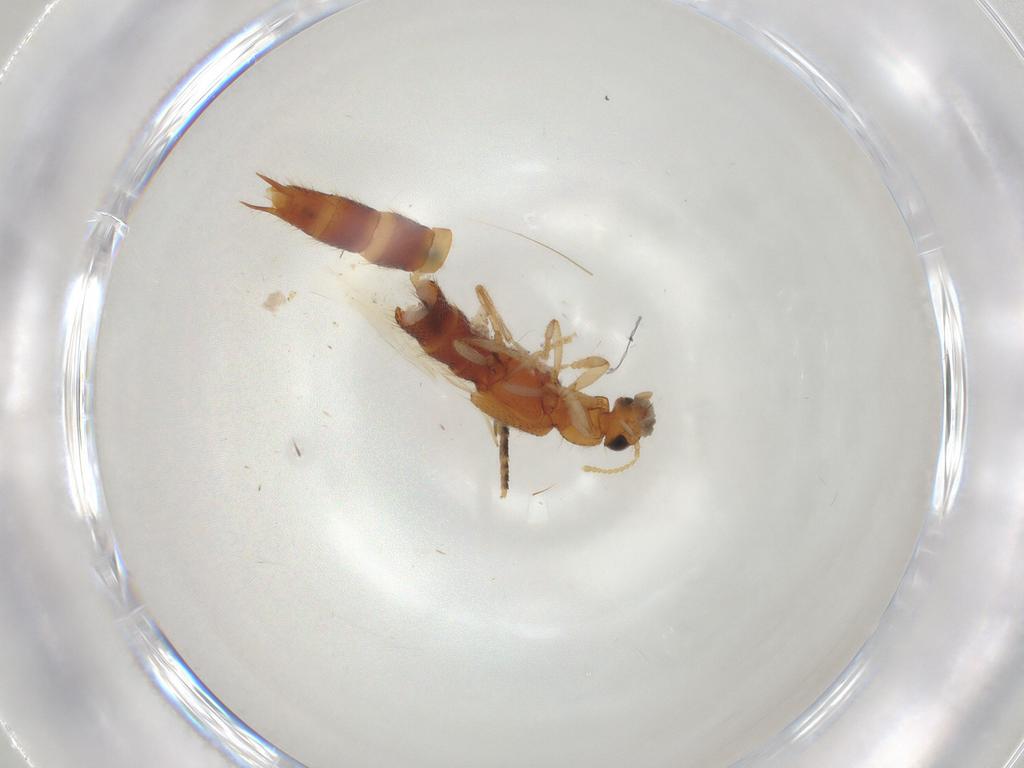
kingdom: Animalia
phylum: Arthropoda
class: Insecta
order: Coleoptera
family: Staphylinidae
